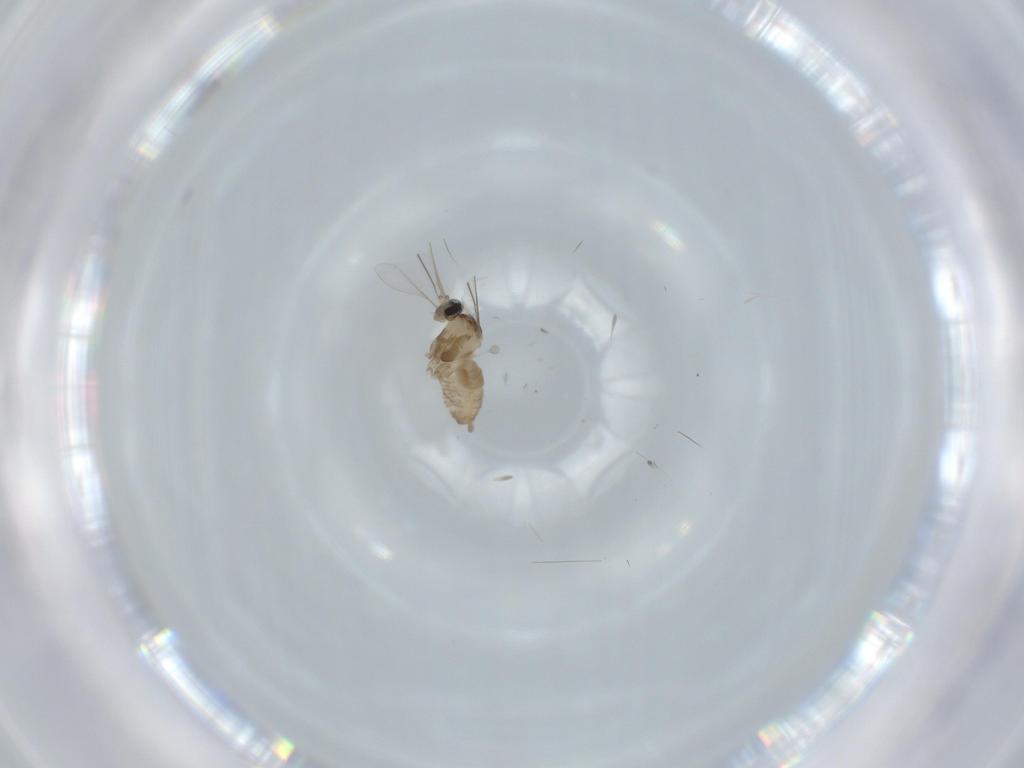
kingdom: Animalia
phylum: Arthropoda
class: Insecta
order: Diptera
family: Cecidomyiidae
